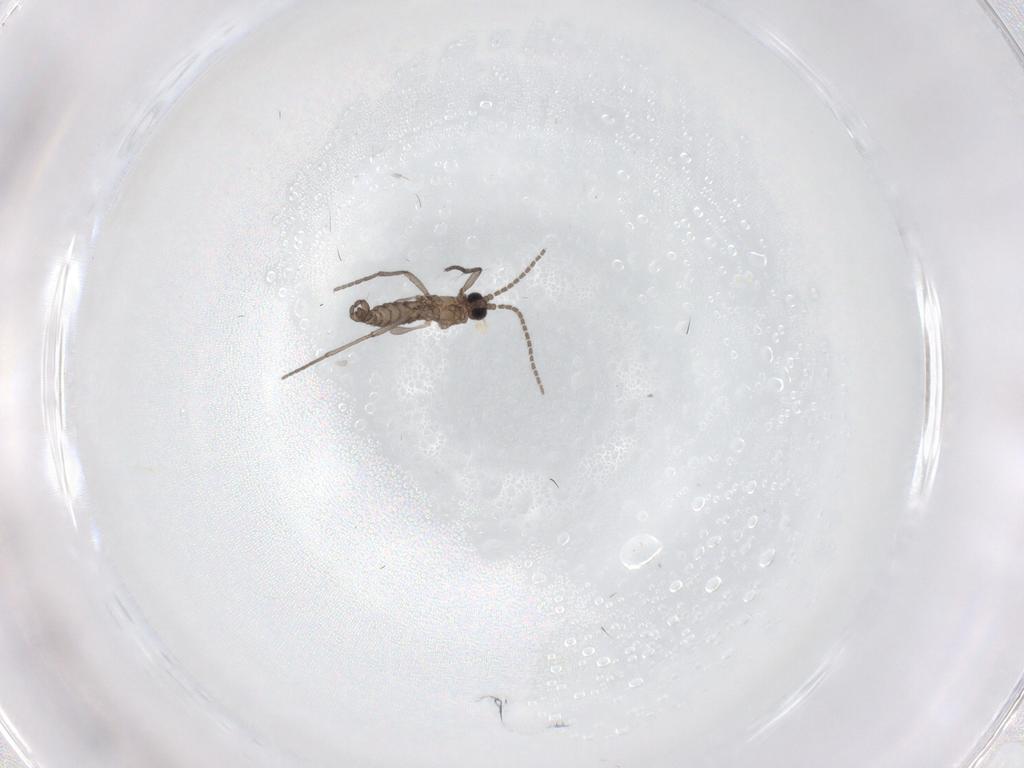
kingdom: Animalia
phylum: Arthropoda
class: Insecta
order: Diptera
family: Sciaridae
